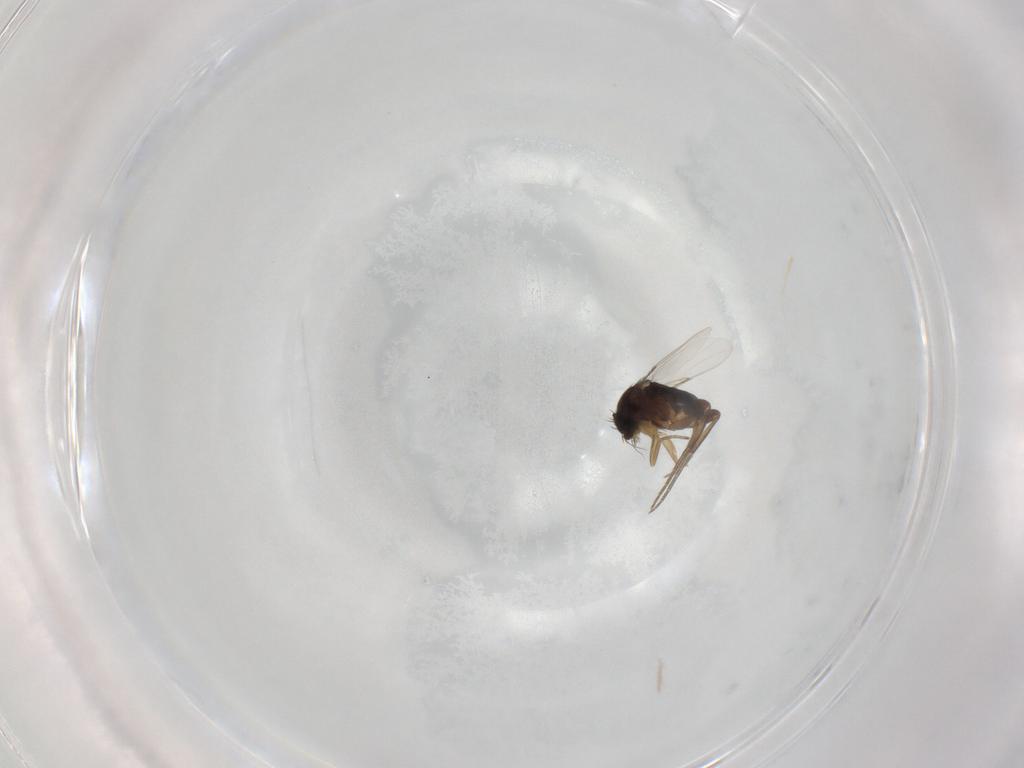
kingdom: Animalia
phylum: Arthropoda
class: Insecta
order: Diptera
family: Phoridae
